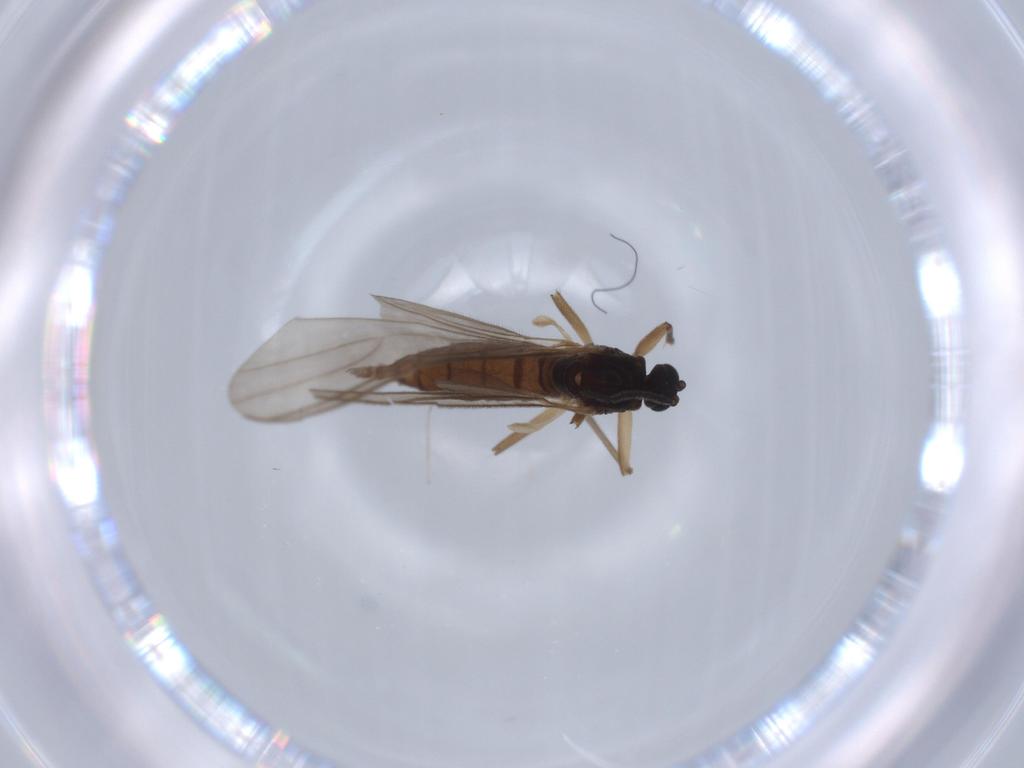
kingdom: Animalia
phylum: Arthropoda
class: Insecta
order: Diptera
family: Sciaridae
